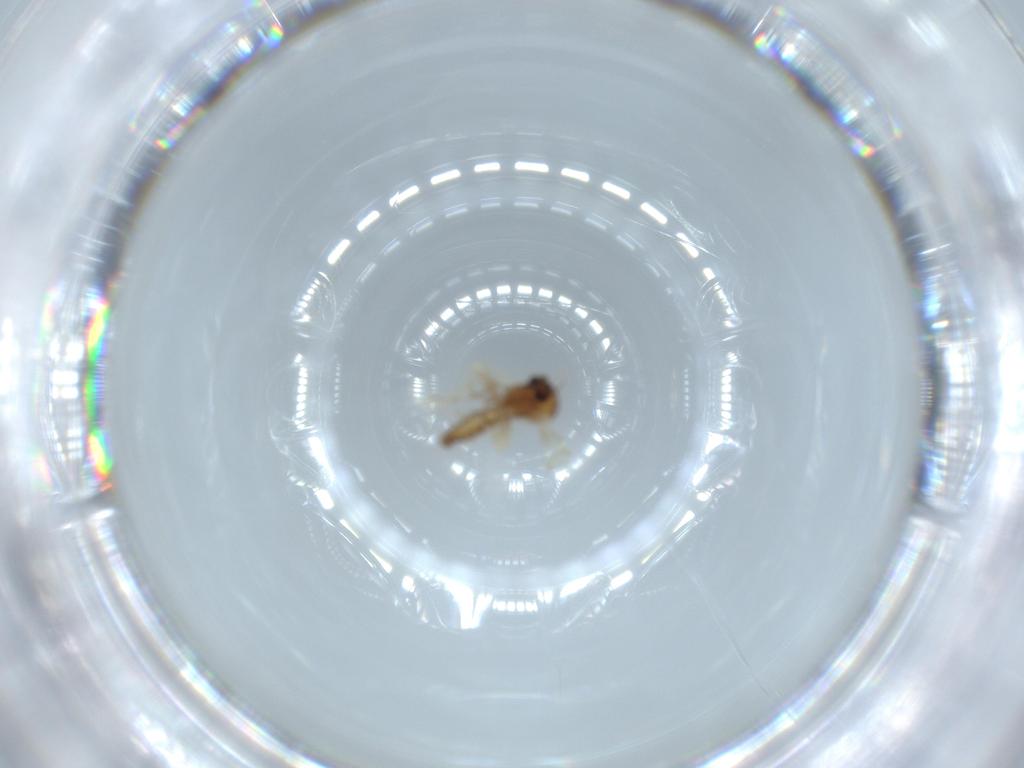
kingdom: Animalia
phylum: Arthropoda
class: Insecta
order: Diptera
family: Ceratopogonidae
